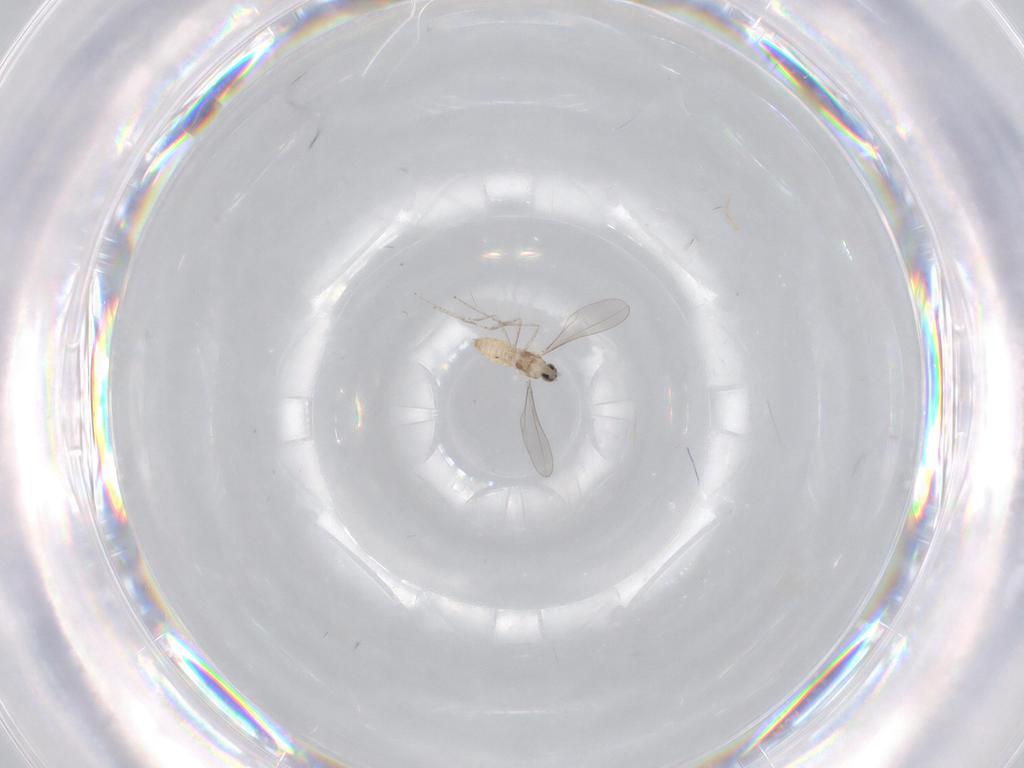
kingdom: Animalia
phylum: Arthropoda
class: Insecta
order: Diptera
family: Cecidomyiidae
